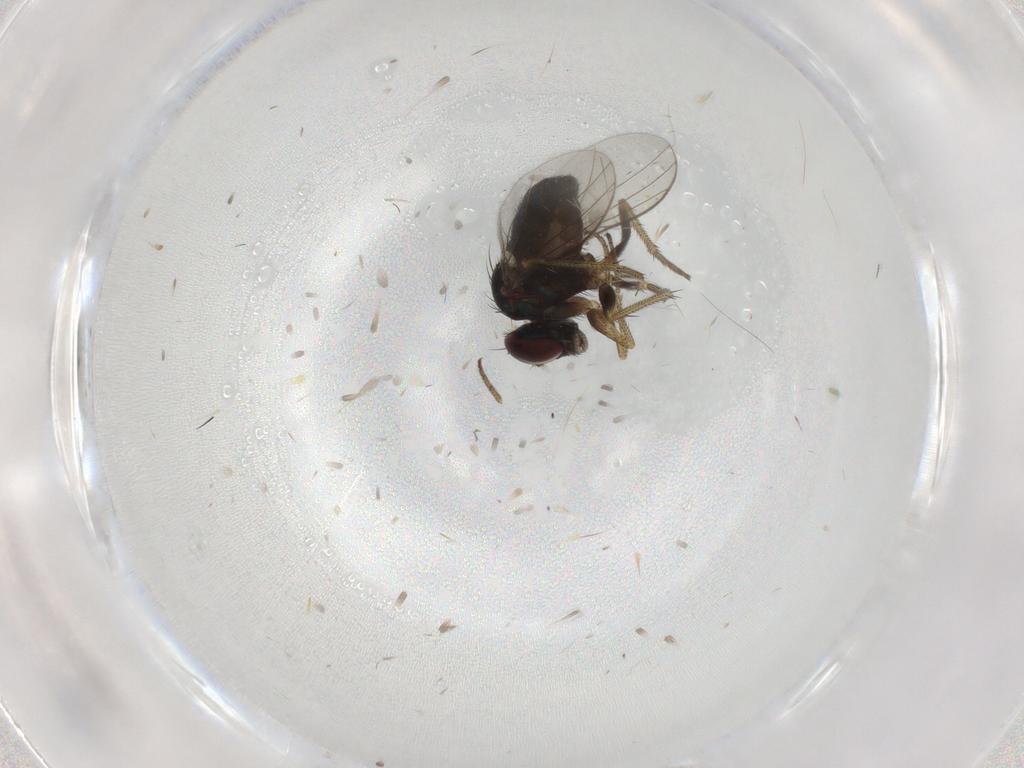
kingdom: Animalia
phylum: Arthropoda
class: Insecta
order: Diptera
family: Psychodidae
